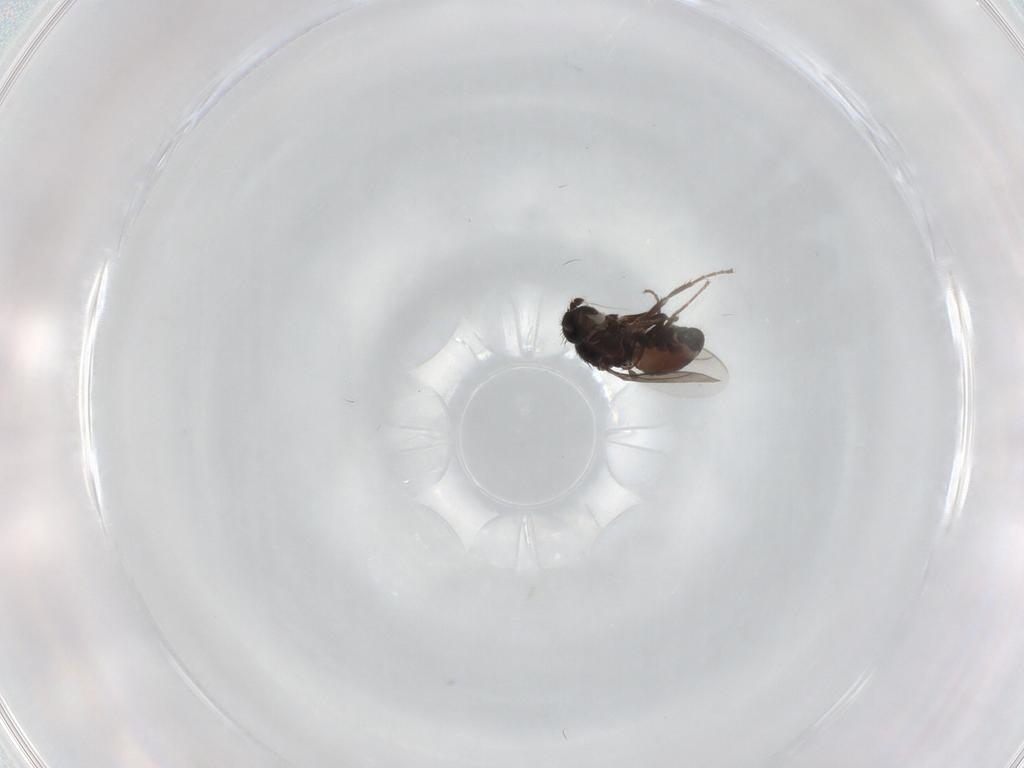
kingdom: Animalia
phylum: Arthropoda
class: Insecta
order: Diptera
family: Tabanidae
